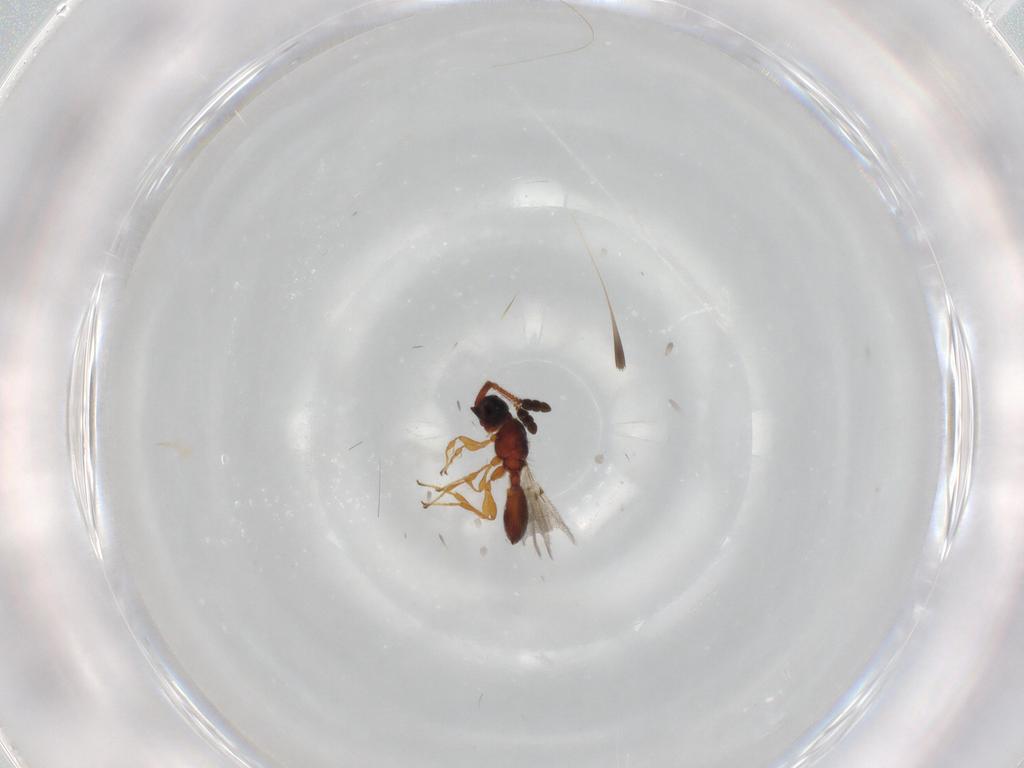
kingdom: Animalia
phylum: Arthropoda
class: Insecta
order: Hymenoptera
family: Diapriidae
